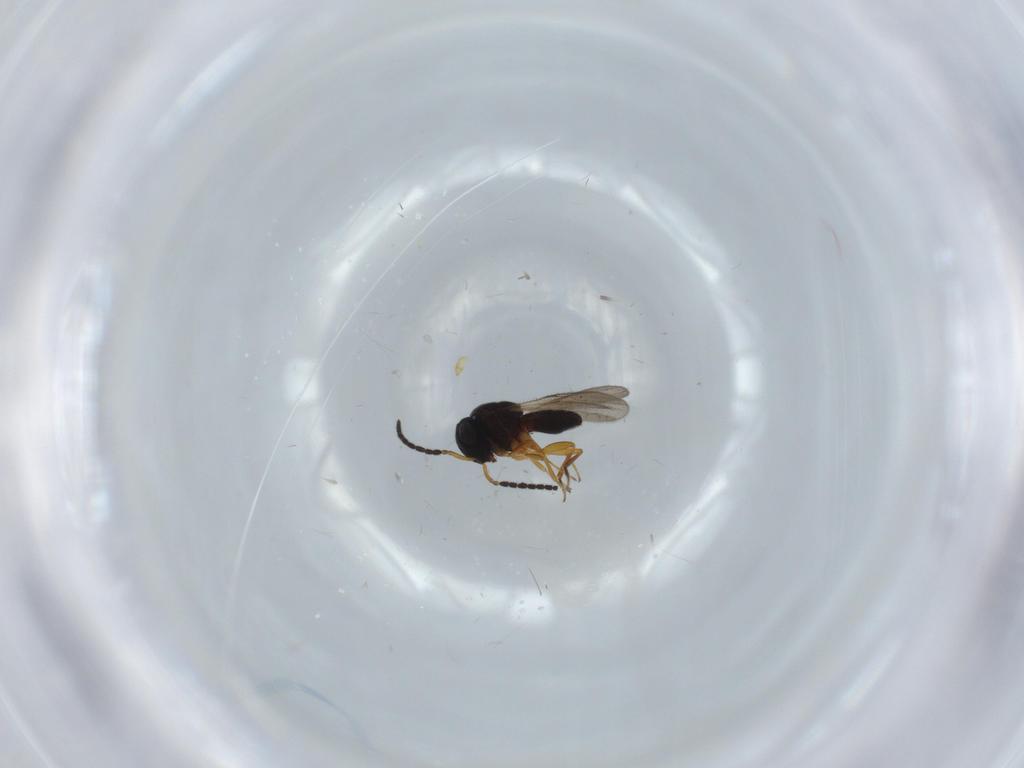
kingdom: Animalia
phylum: Arthropoda
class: Insecta
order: Coleoptera
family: Curculionidae
